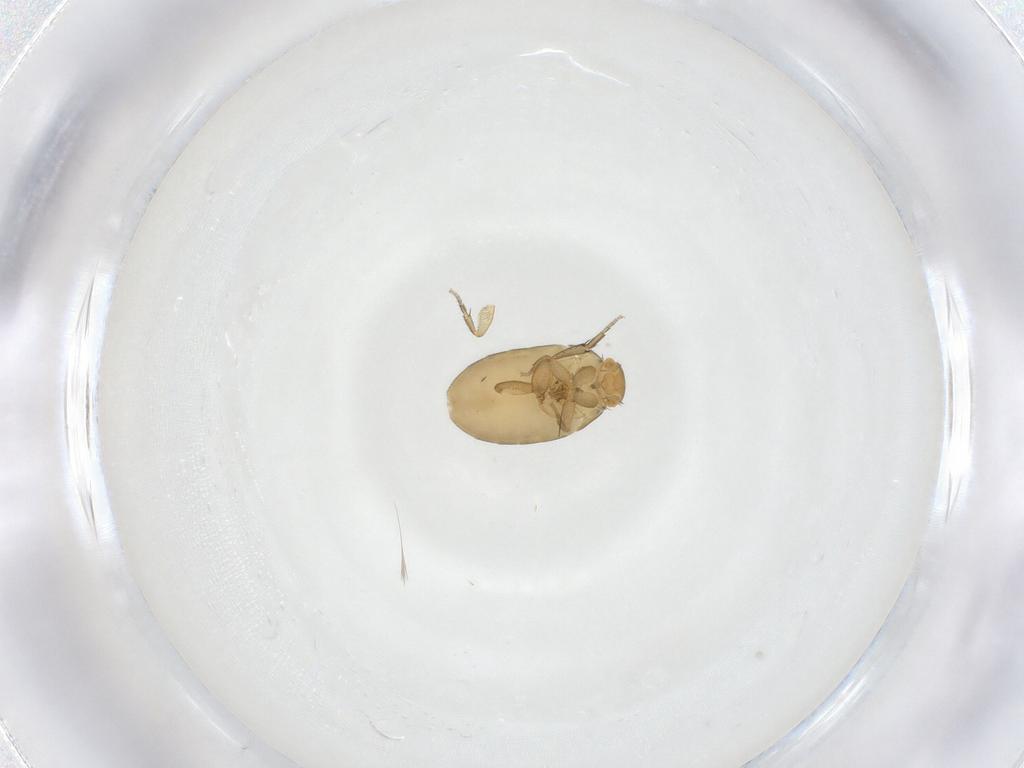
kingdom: Animalia
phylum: Arthropoda
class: Insecta
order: Diptera
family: Phoridae
